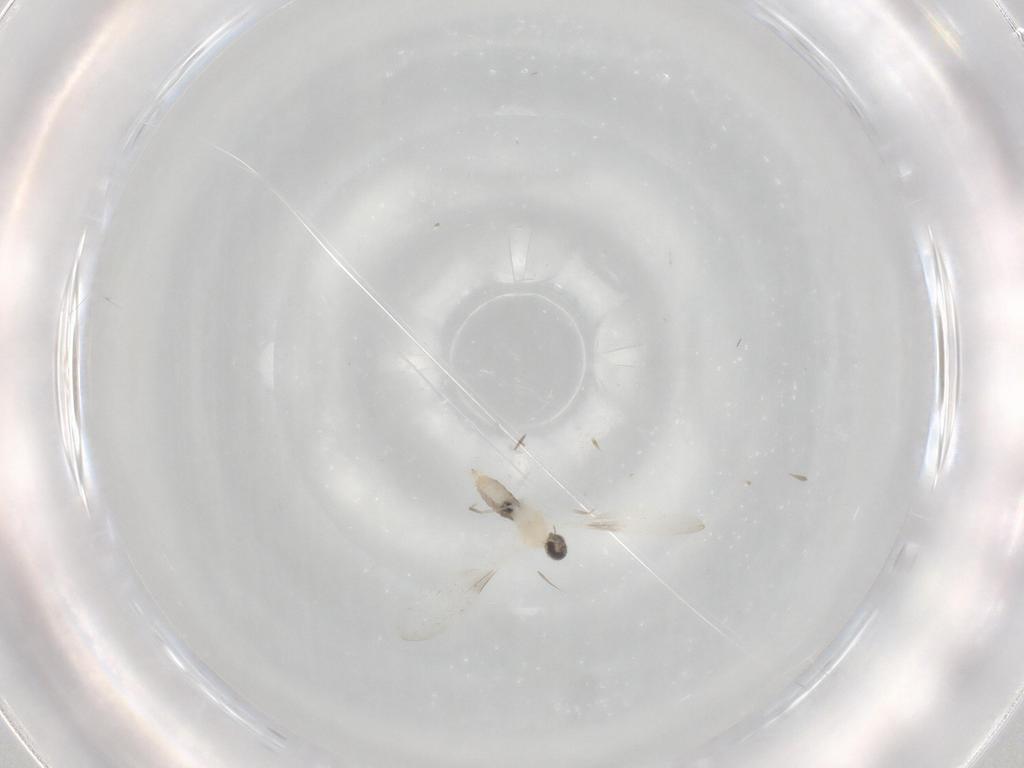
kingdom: Animalia
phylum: Arthropoda
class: Insecta
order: Diptera
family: Cecidomyiidae
